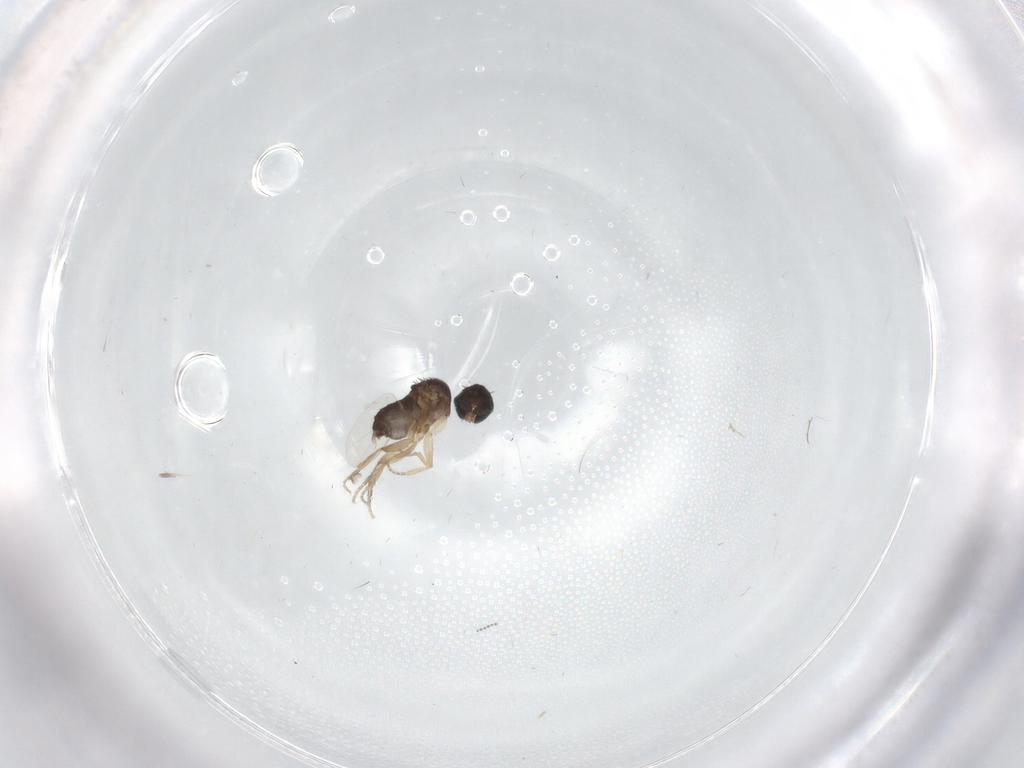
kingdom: Animalia
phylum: Arthropoda
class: Insecta
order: Diptera
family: Phoridae
